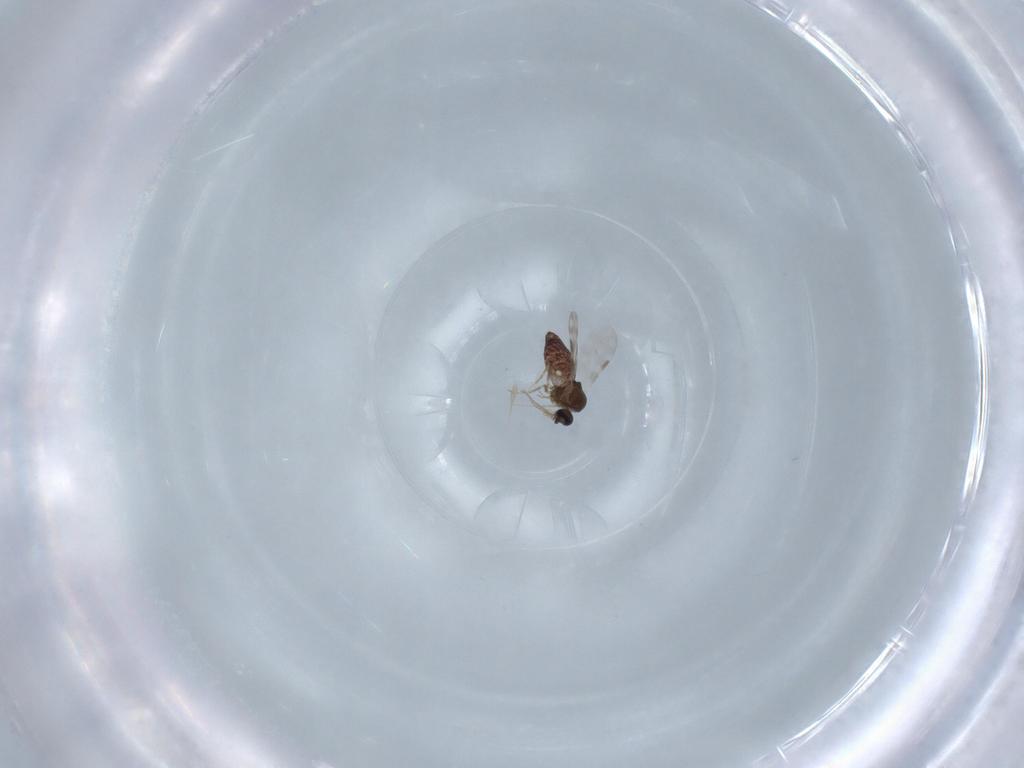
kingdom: Animalia
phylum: Arthropoda
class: Insecta
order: Diptera
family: Ceratopogonidae
